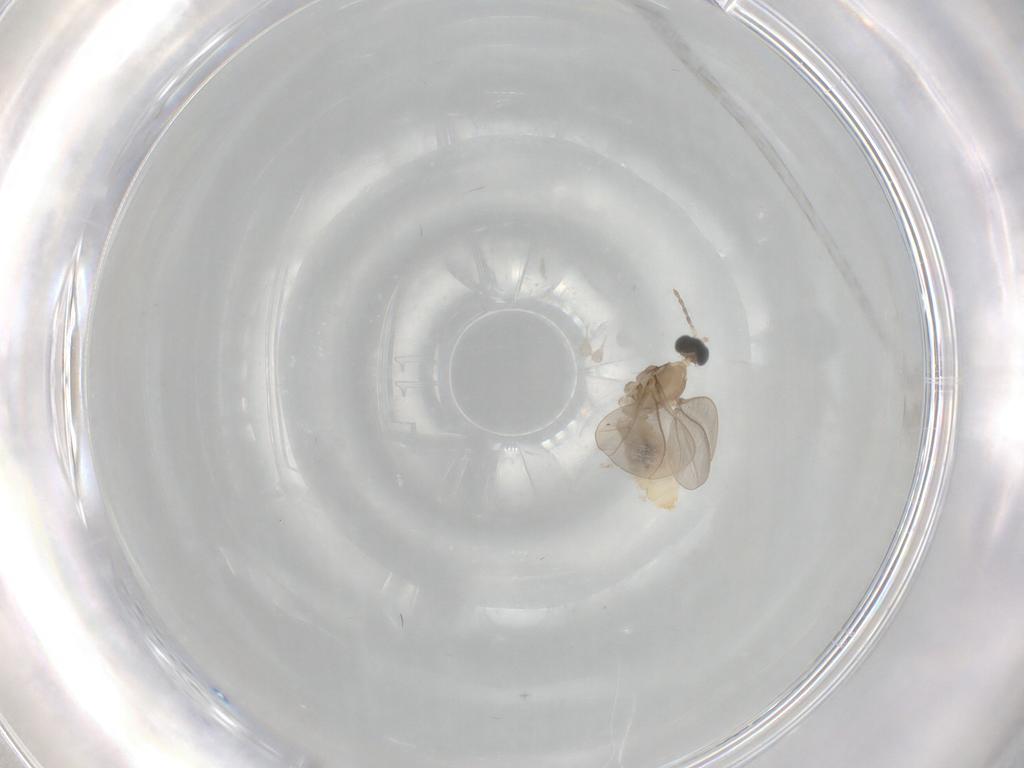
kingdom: Animalia
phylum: Arthropoda
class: Insecta
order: Diptera
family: Cecidomyiidae
